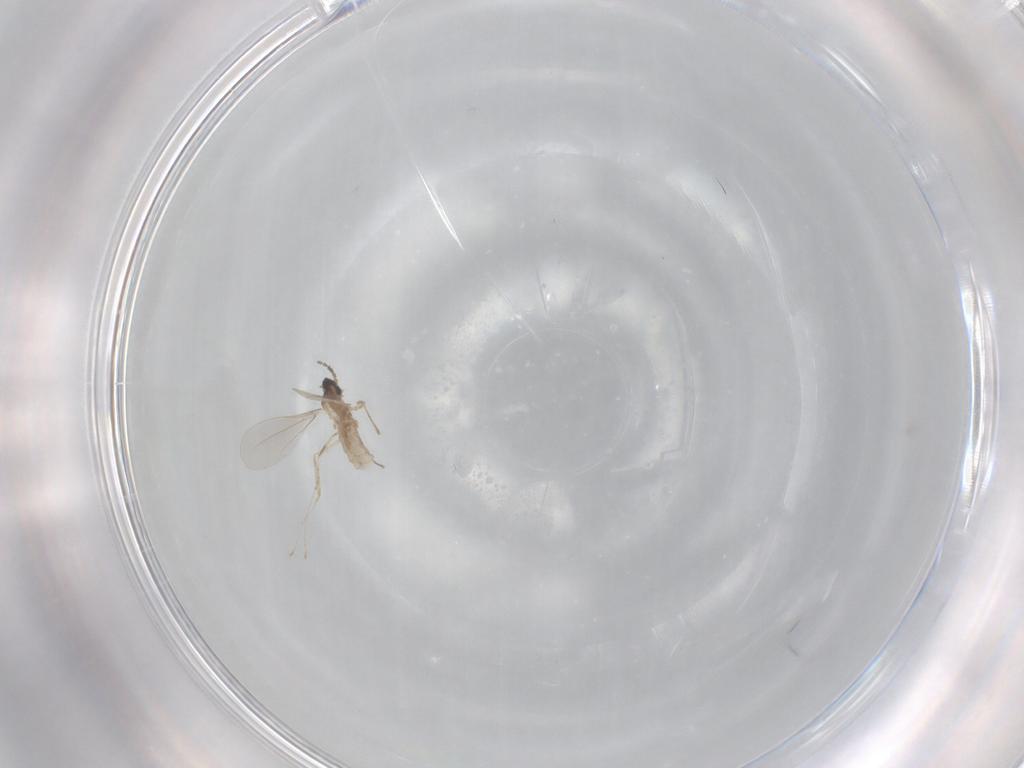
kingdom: Animalia
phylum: Arthropoda
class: Insecta
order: Diptera
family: Cecidomyiidae
